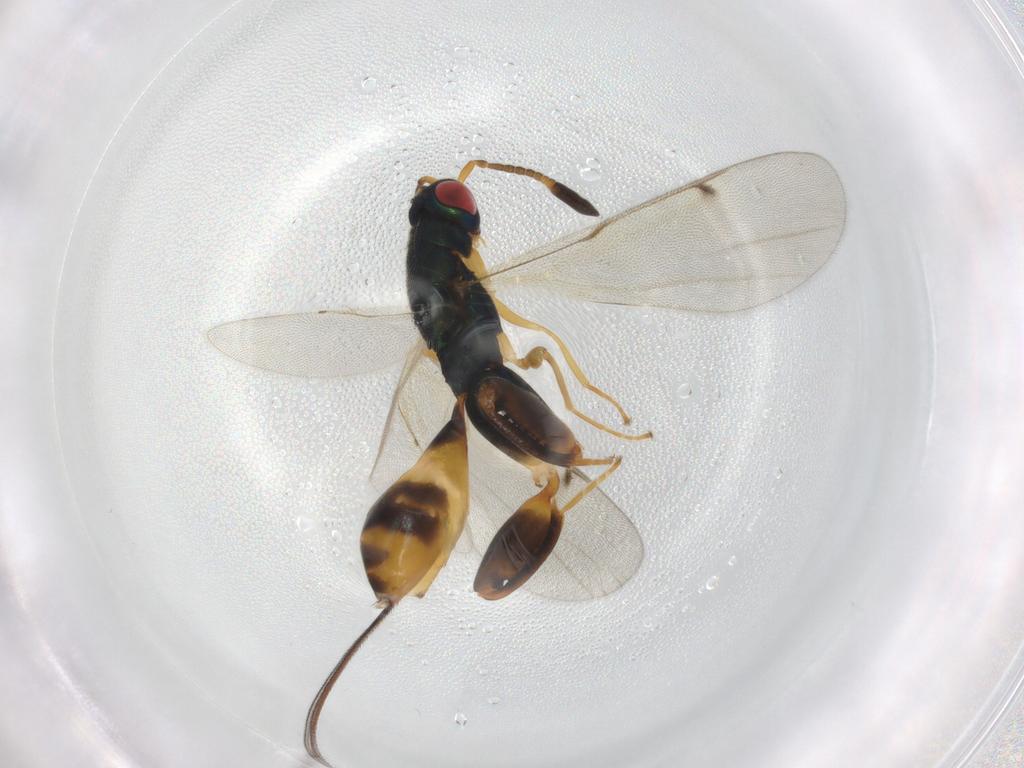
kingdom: Animalia
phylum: Arthropoda
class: Insecta
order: Hymenoptera
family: Torymidae
